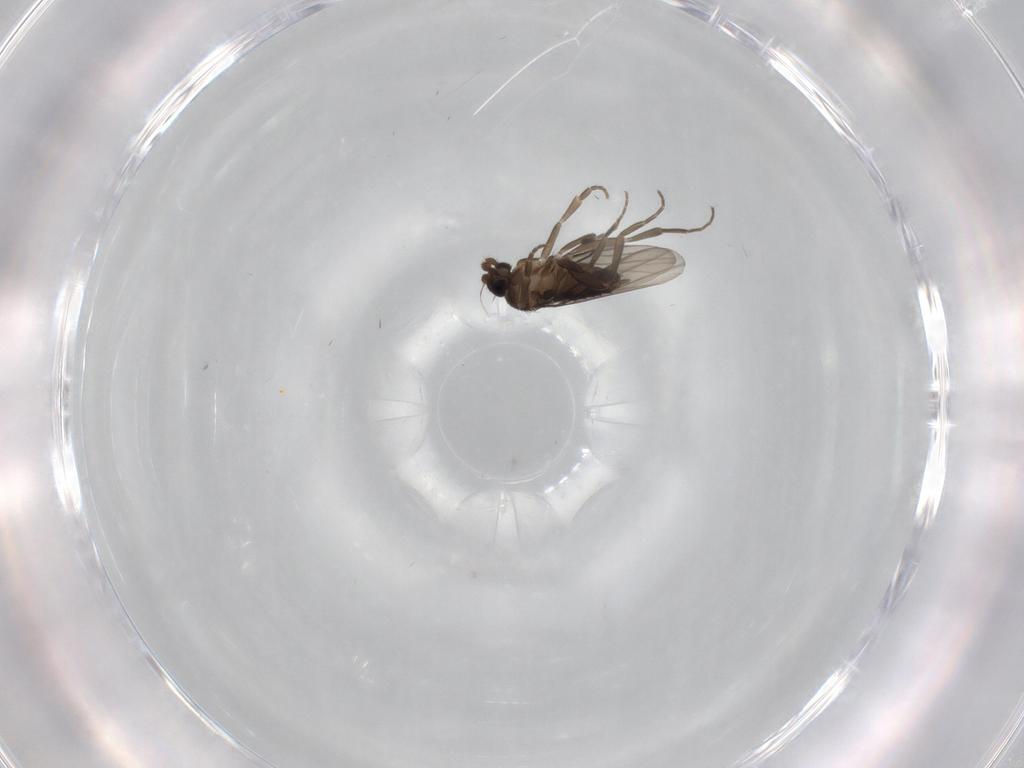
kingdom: Animalia
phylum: Arthropoda
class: Insecta
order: Diptera
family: Phoridae
